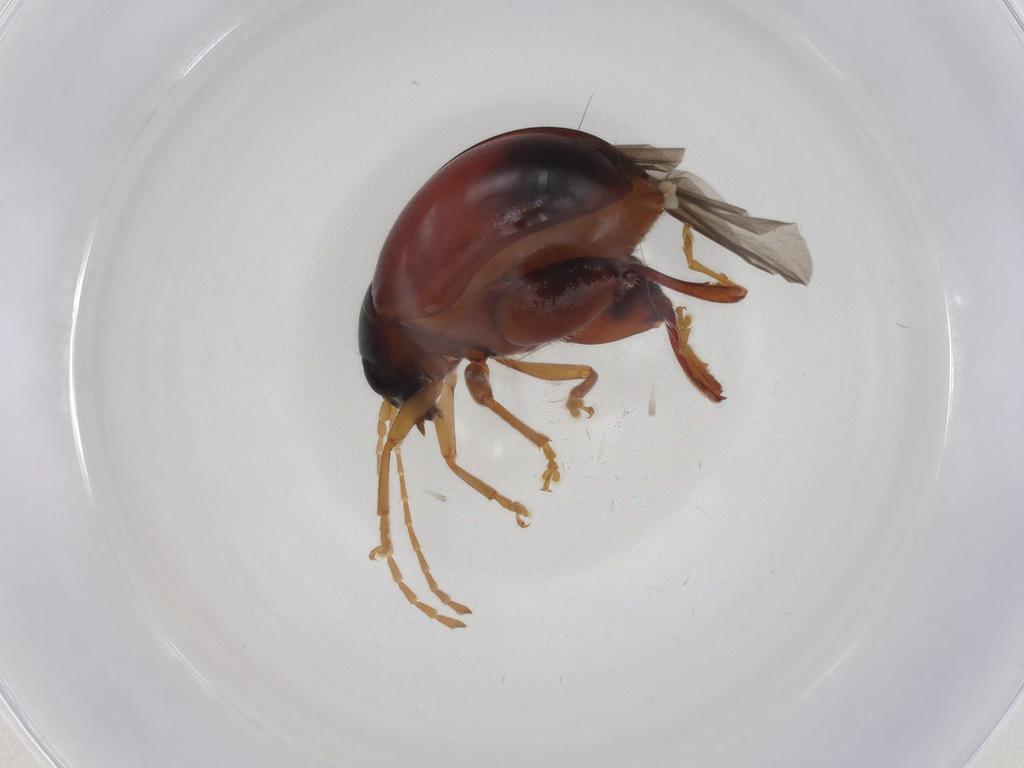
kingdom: Animalia
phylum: Arthropoda
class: Insecta
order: Coleoptera
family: Chrysomelidae
